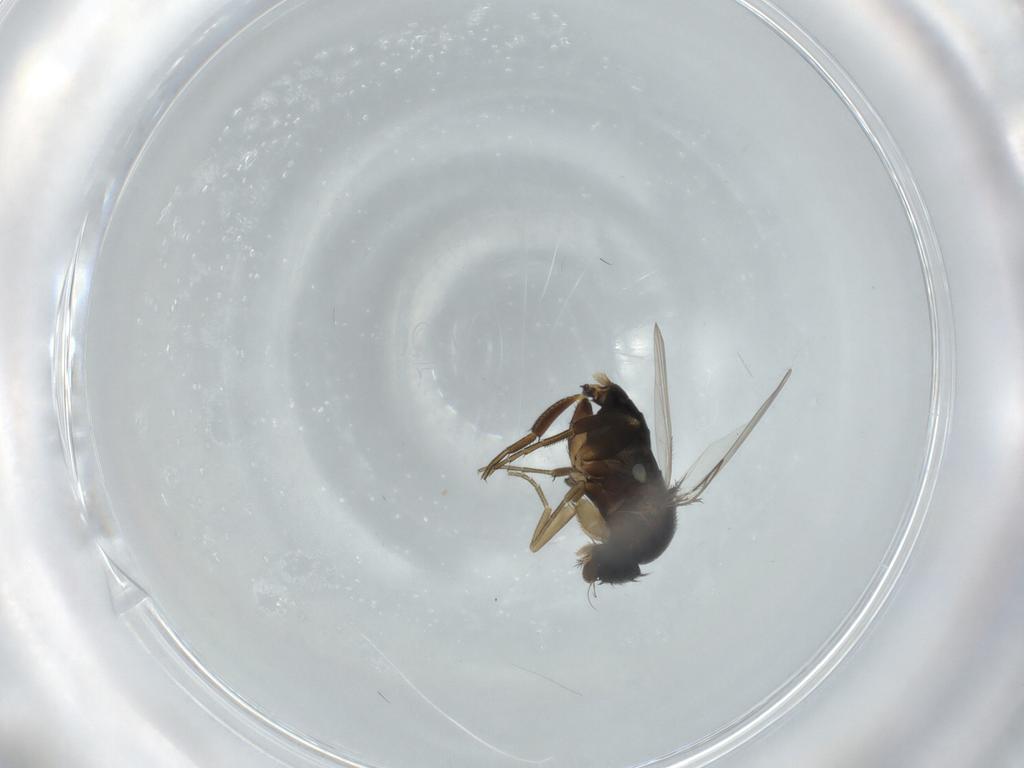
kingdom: Animalia
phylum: Arthropoda
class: Insecta
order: Diptera
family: Phoridae
